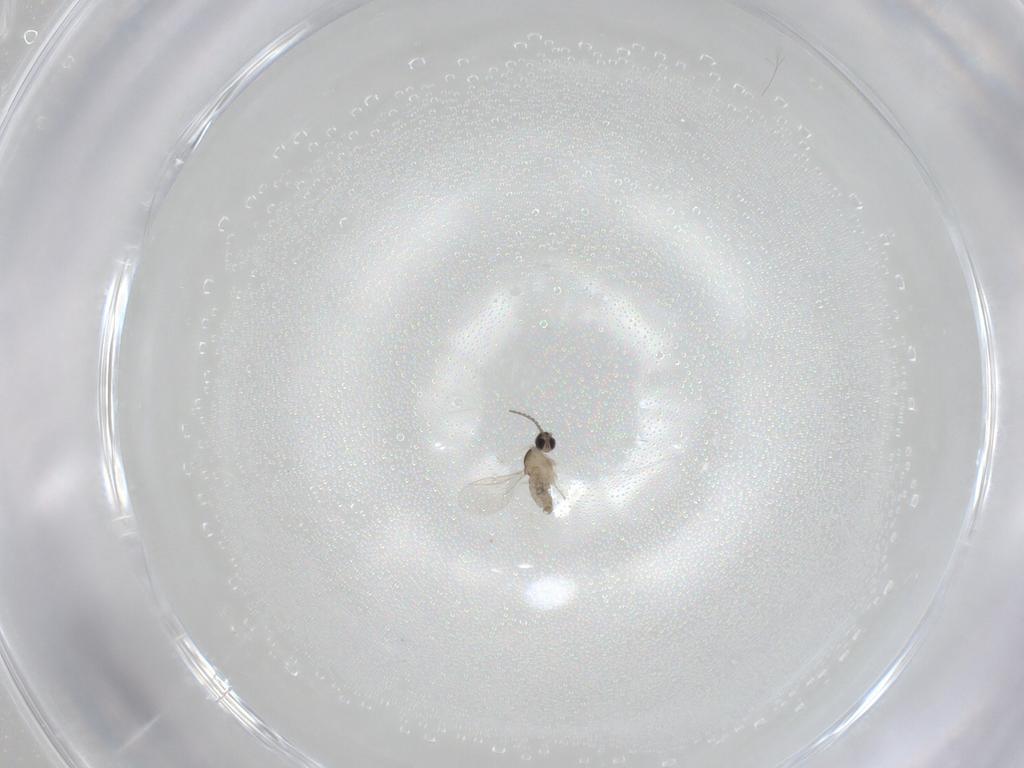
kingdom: Animalia
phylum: Arthropoda
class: Insecta
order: Diptera
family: Cecidomyiidae
